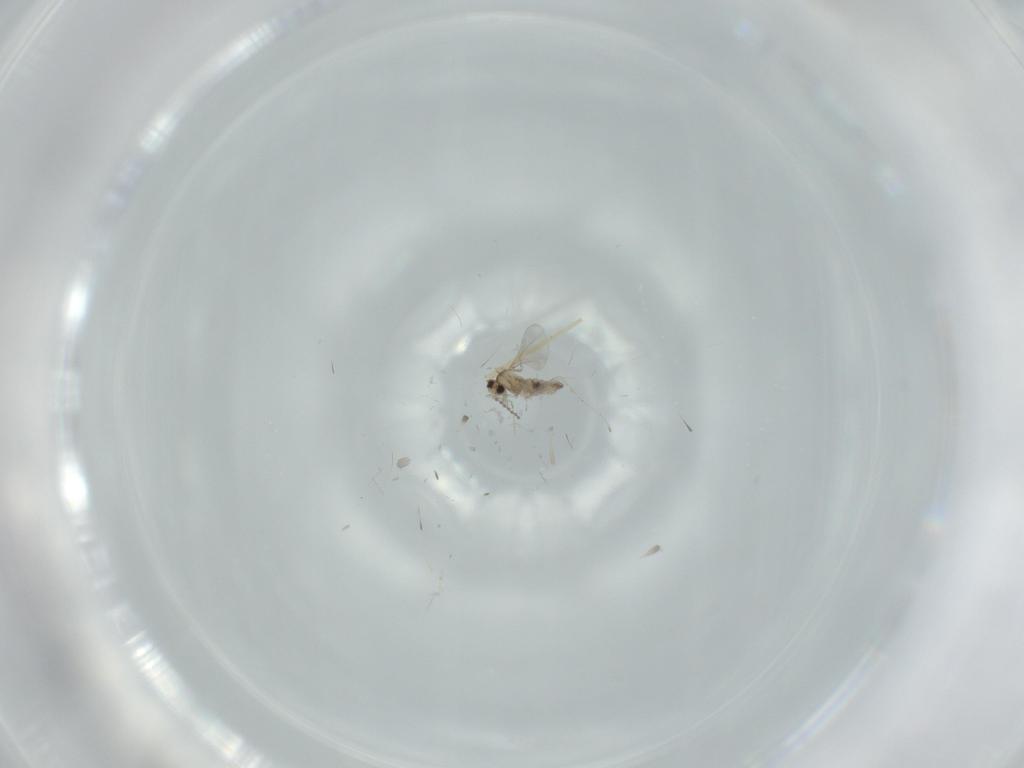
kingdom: Animalia
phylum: Arthropoda
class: Insecta
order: Diptera
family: Cecidomyiidae
